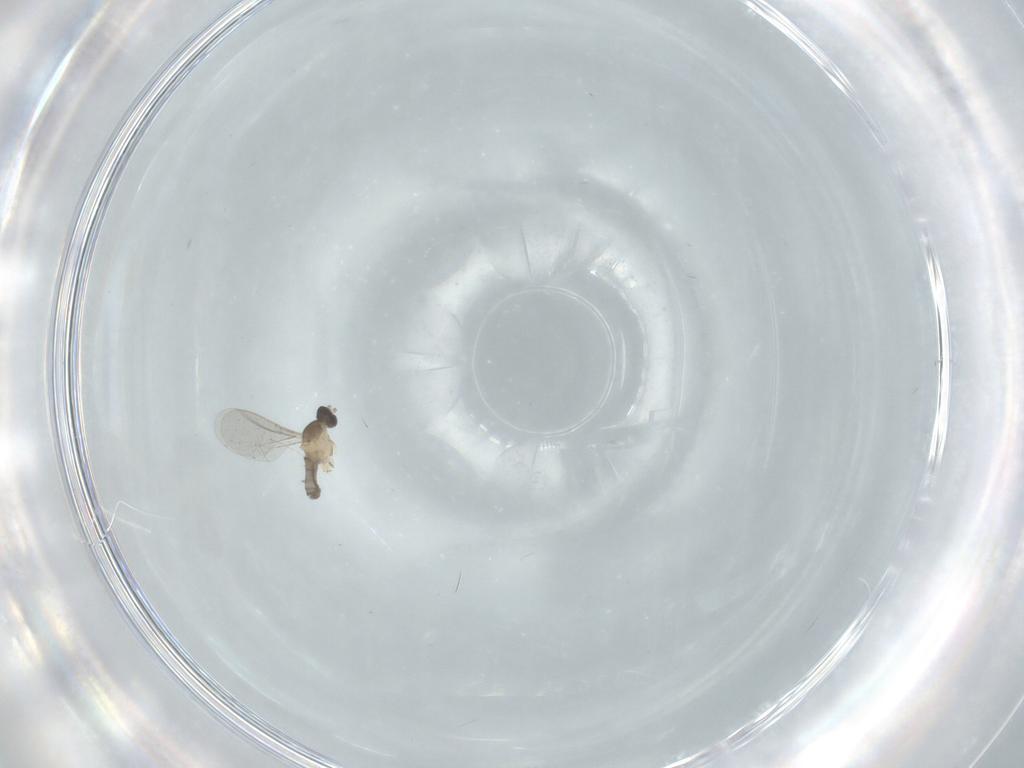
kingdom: Animalia
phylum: Arthropoda
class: Insecta
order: Diptera
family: Cecidomyiidae
